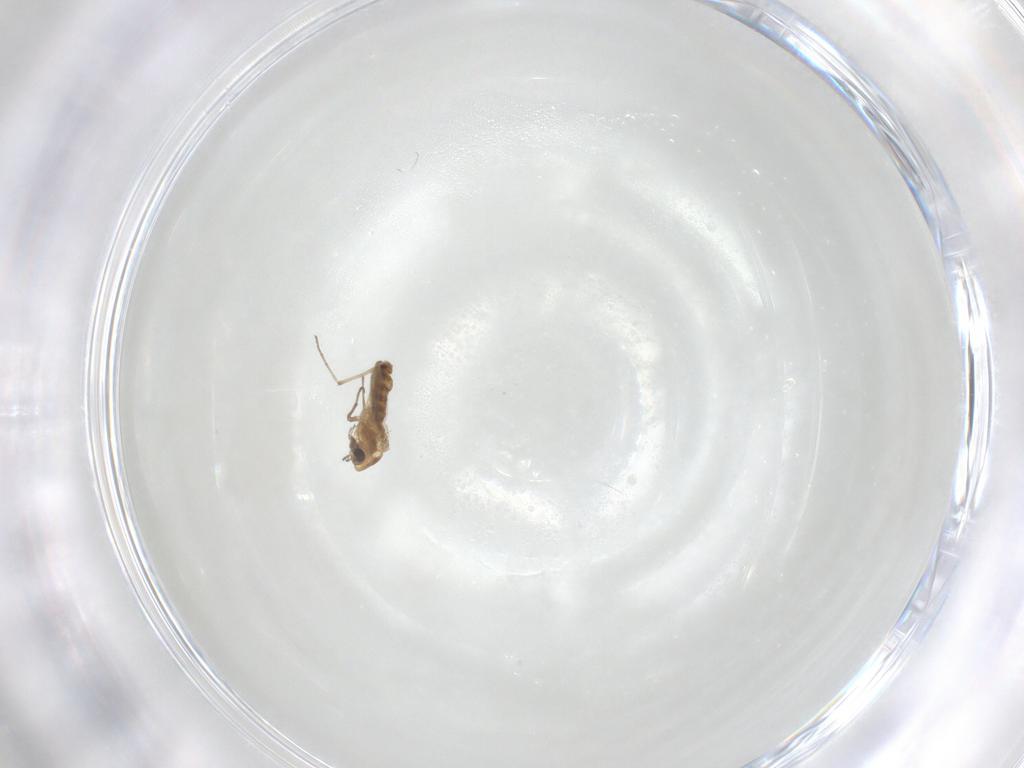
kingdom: Animalia
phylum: Arthropoda
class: Insecta
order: Diptera
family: Chironomidae
